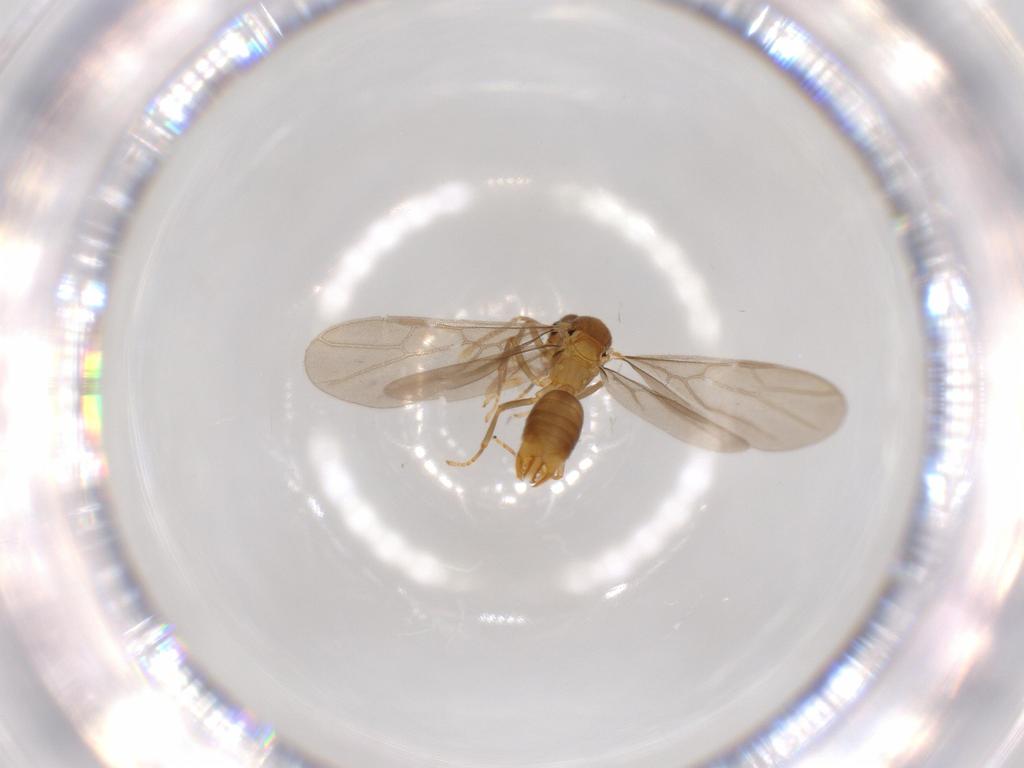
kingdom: Animalia
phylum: Arthropoda
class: Insecta
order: Hymenoptera
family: Formicidae
